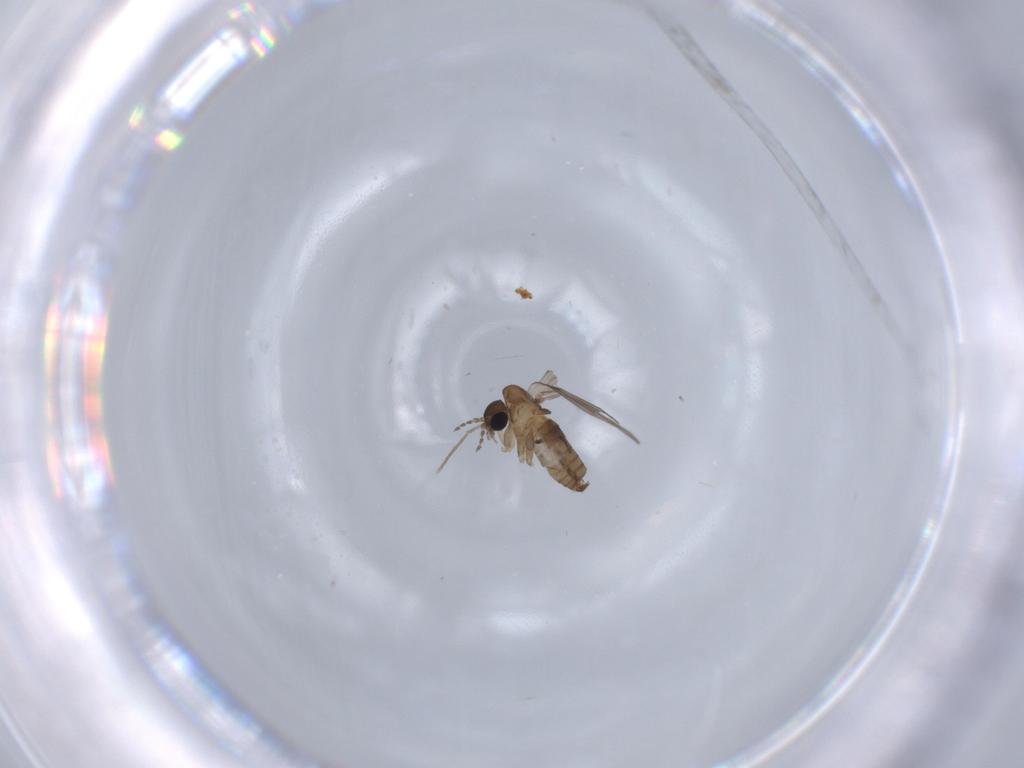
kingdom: Animalia
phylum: Arthropoda
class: Insecta
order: Diptera
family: Psychodidae
